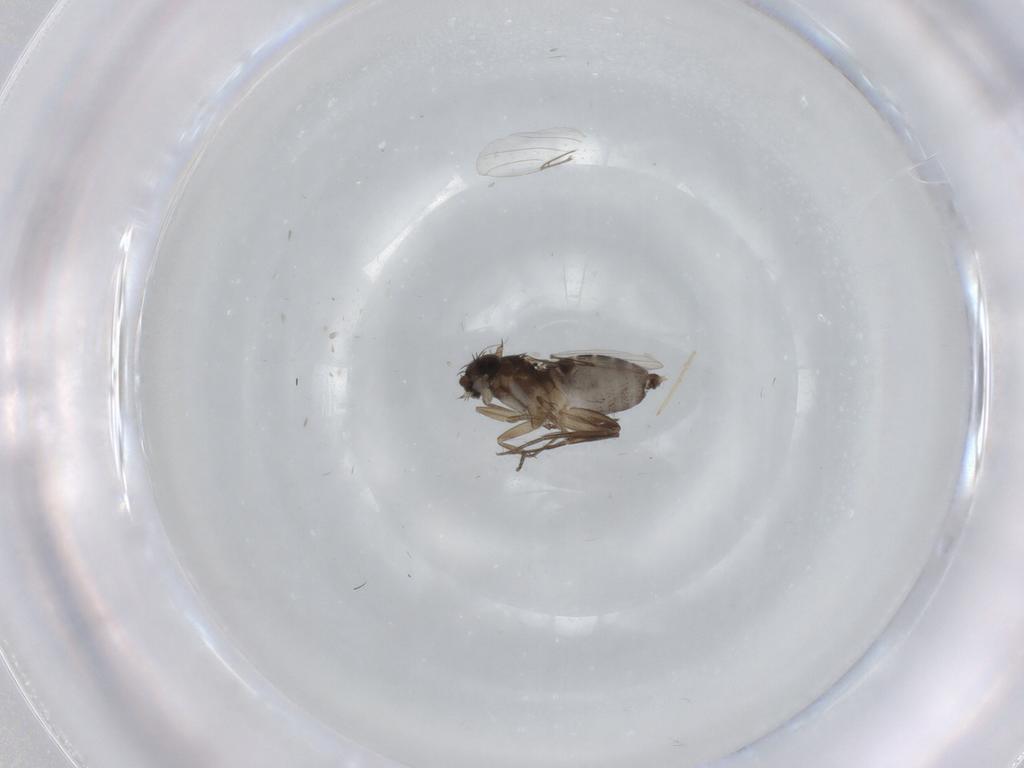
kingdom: Animalia
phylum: Arthropoda
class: Insecta
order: Diptera
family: Phoridae
